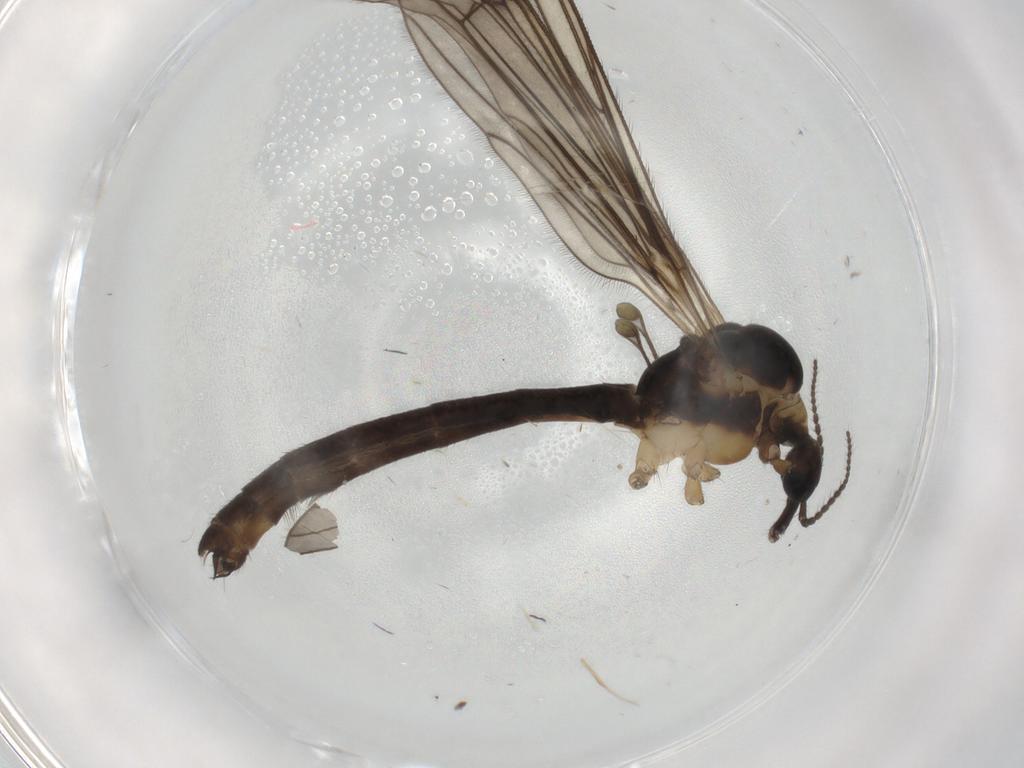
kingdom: Animalia
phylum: Arthropoda
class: Insecta
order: Diptera
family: Limoniidae
